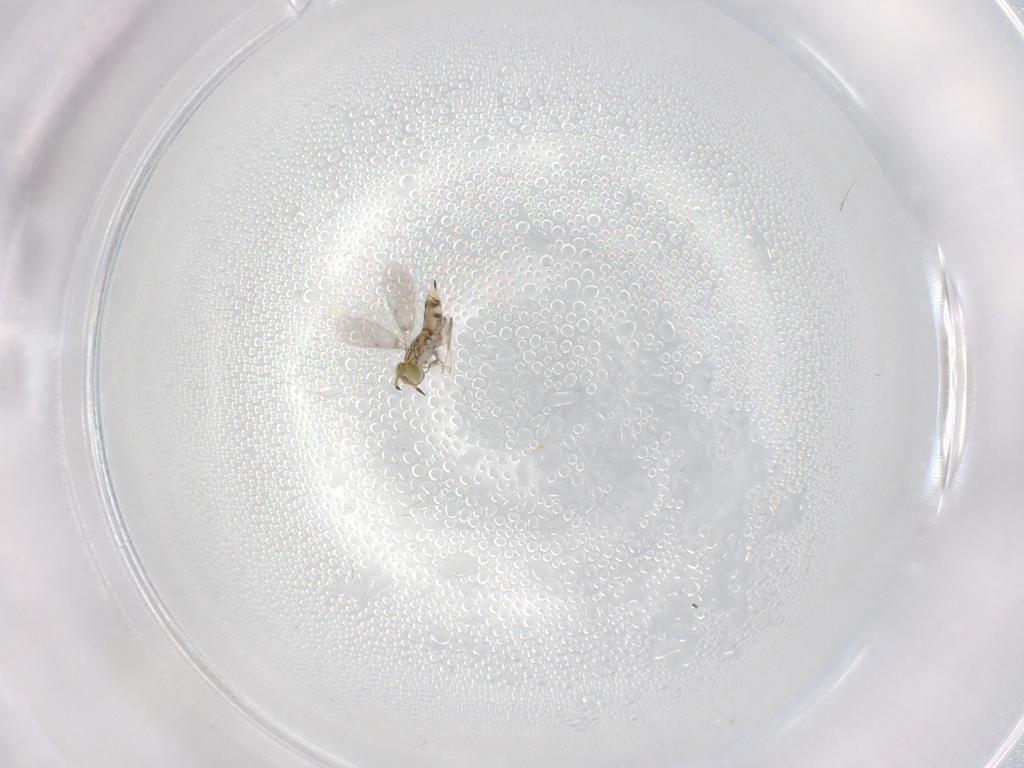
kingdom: Animalia
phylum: Arthropoda
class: Insecta
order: Hymenoptera
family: Aphelinidae
